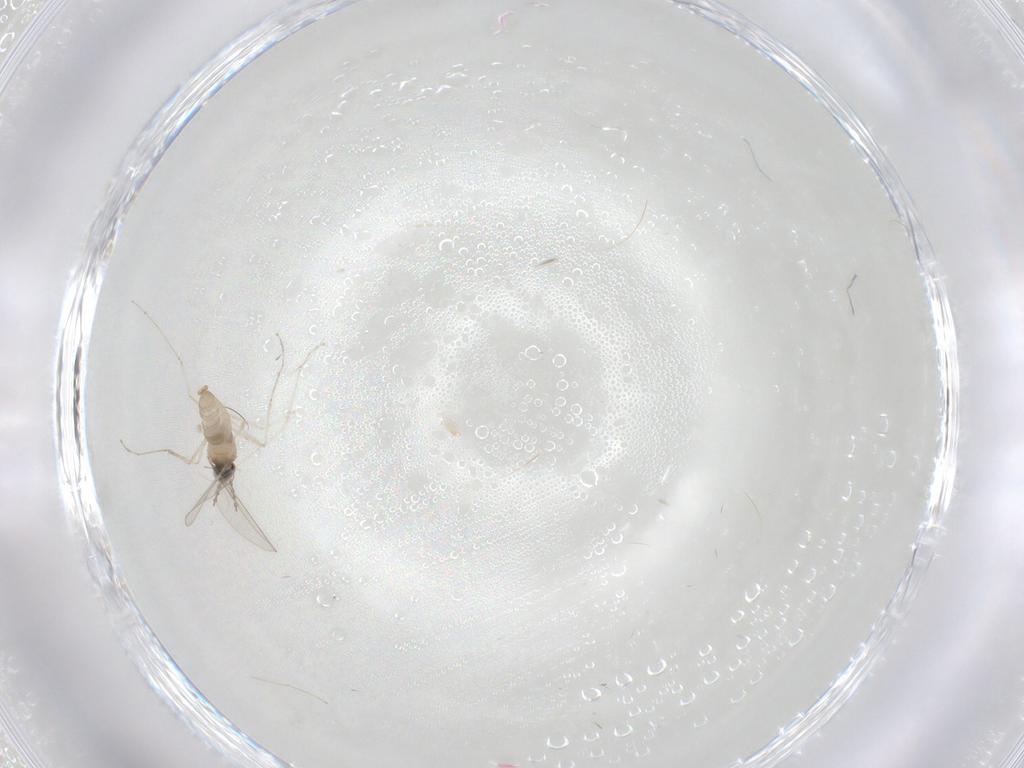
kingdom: Animalia
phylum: Arthropoda
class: Insecta
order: Diptera
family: Cecidomyiidae
